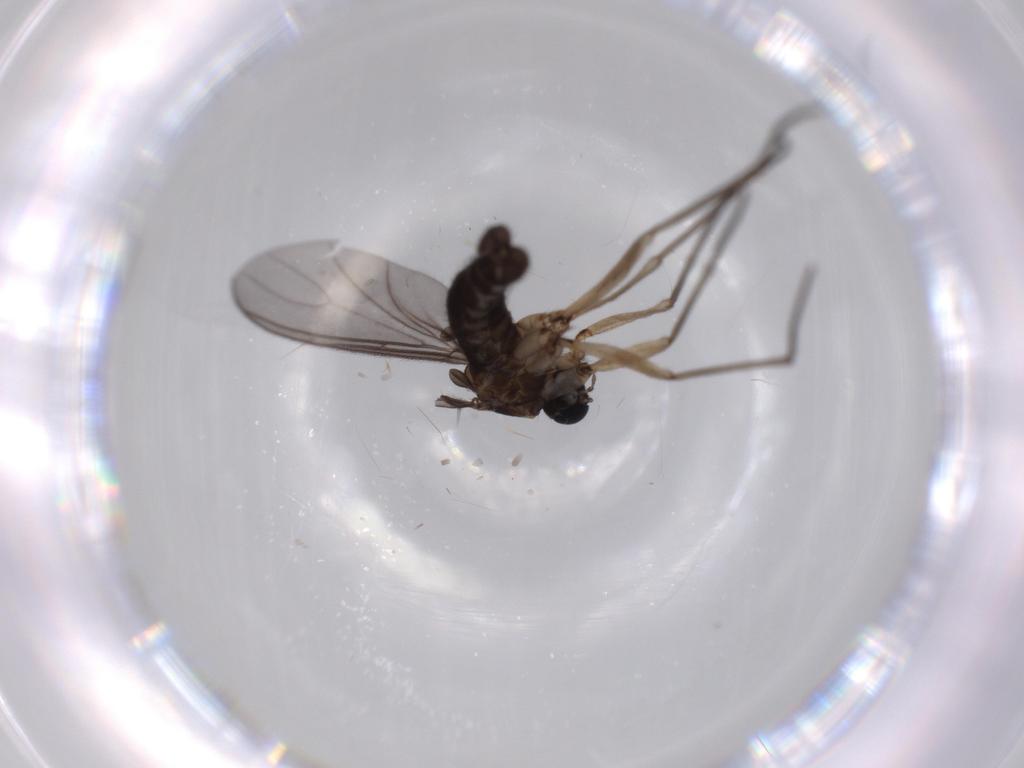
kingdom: Animalia
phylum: Arthropoda
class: Insecta
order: Diptera
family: Sciaridae
